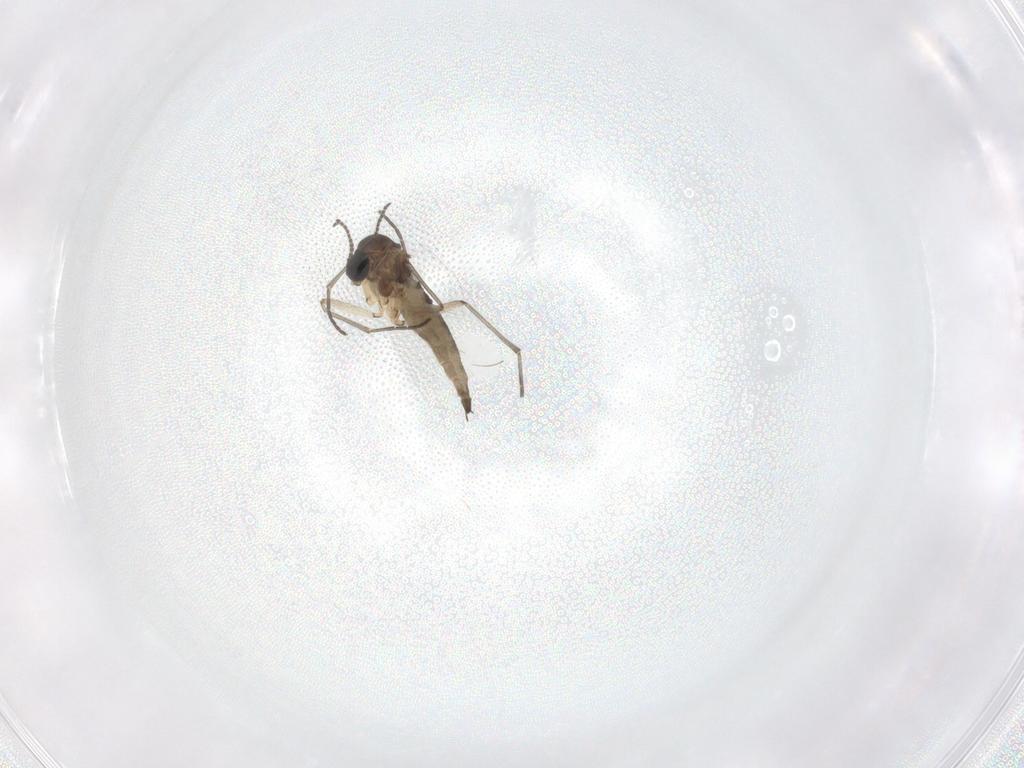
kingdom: Animalia
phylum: Arthropoda
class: Insecta
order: Diptera
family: Sciaridae
